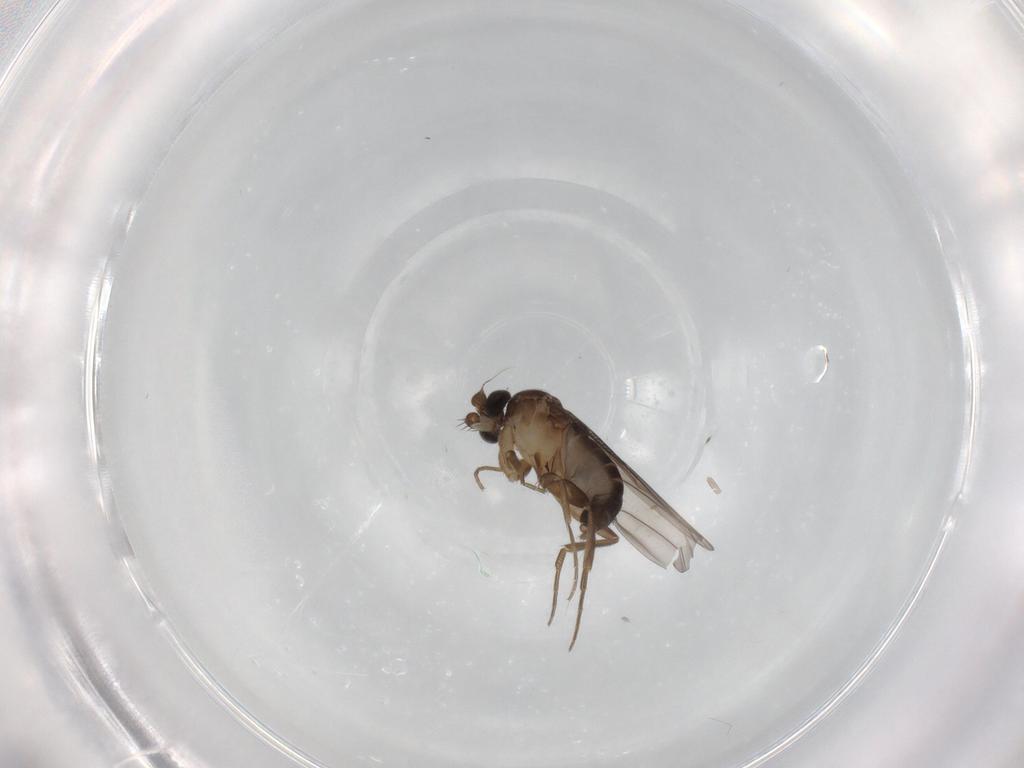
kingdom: Animalia
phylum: Arthropoda
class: Insecta
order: Diptera
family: Phoridae
